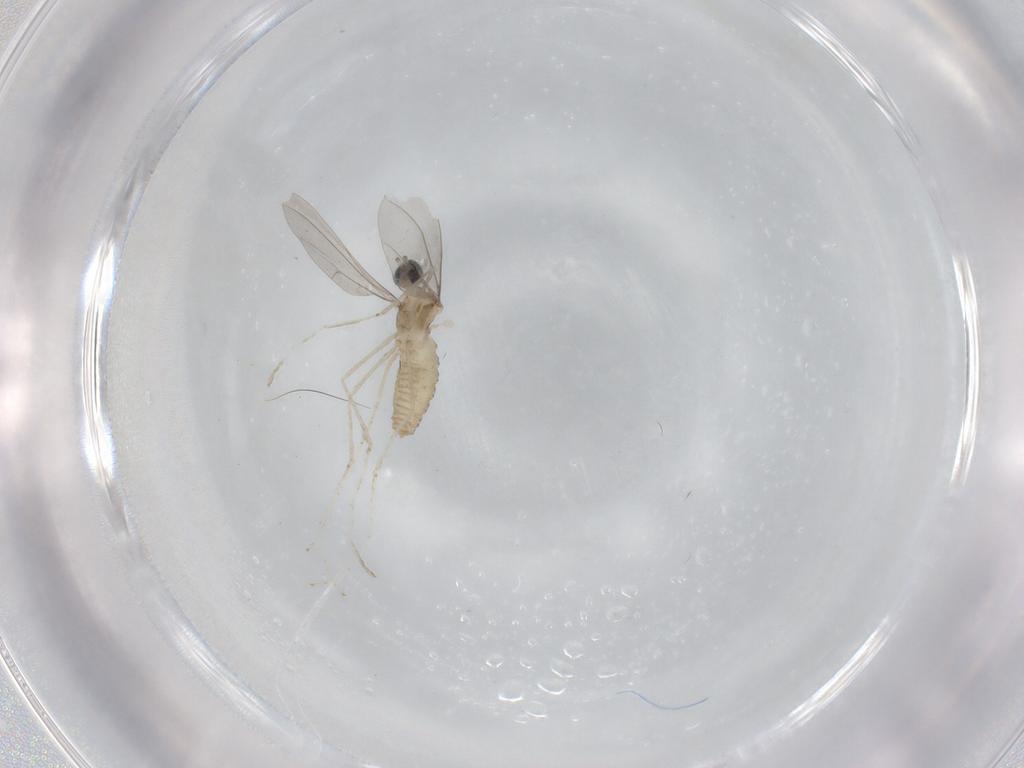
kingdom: Animalia
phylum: Arthropoda
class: Insecta
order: Diptera
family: Cecidomyiidae
